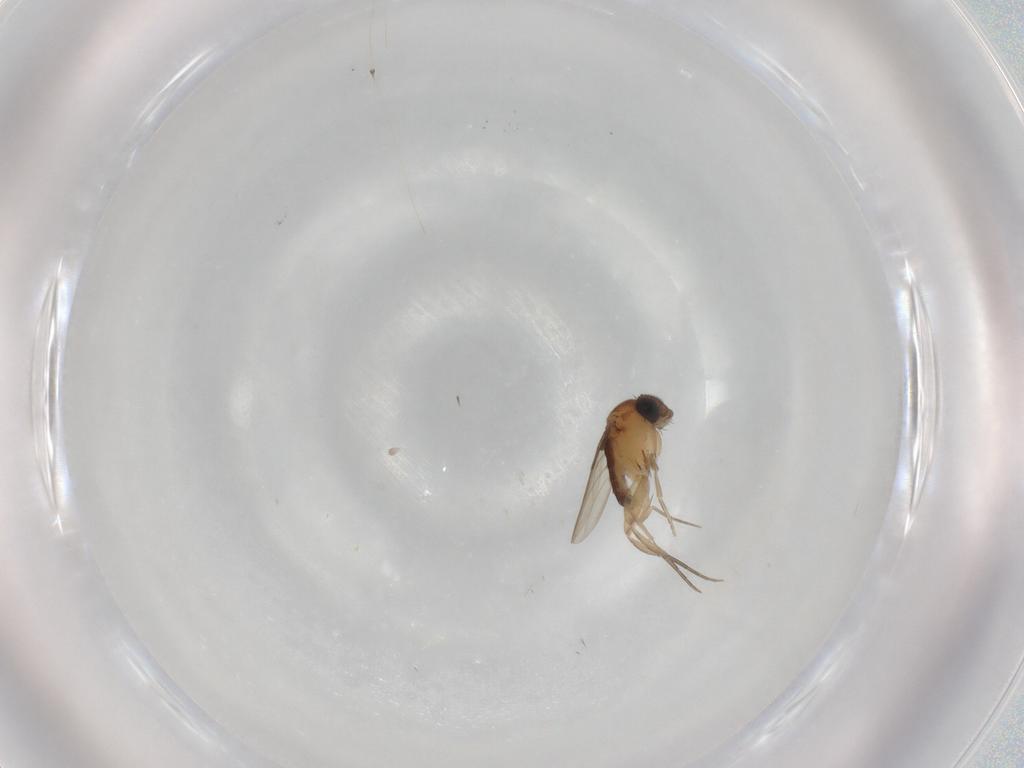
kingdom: Animalia
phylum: Arthropoda
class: Insecta
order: Diptera
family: Phoridae
